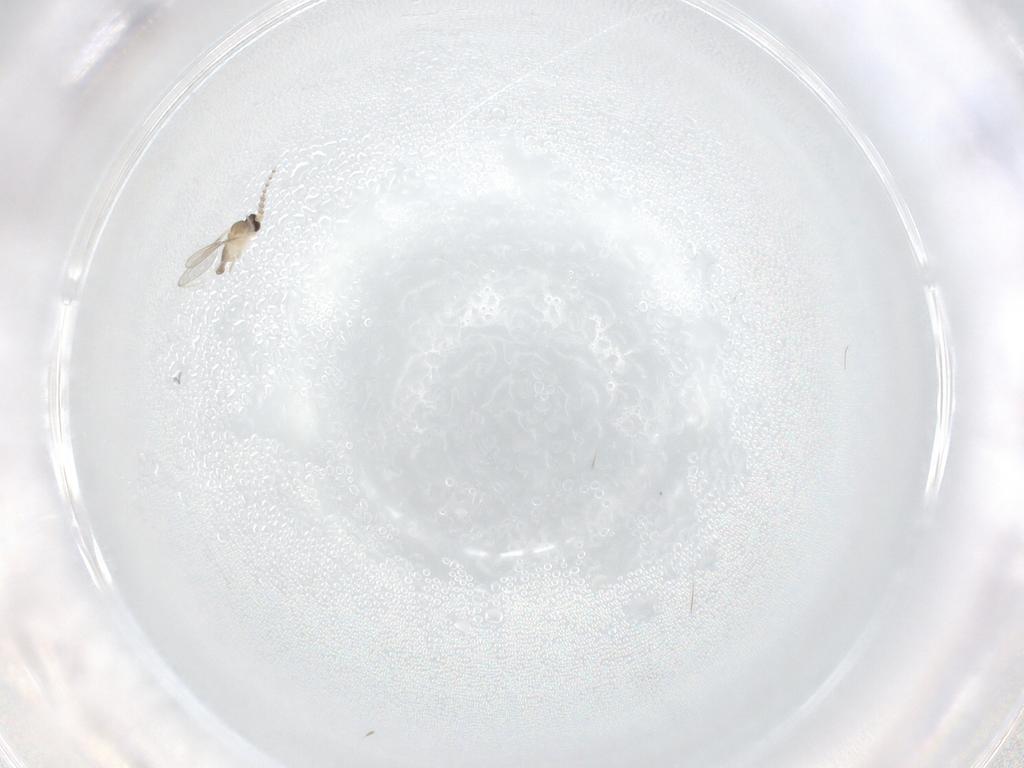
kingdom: Animalia
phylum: Arthropoda
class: Insecta
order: Diptera
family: Cecidomyiidae
